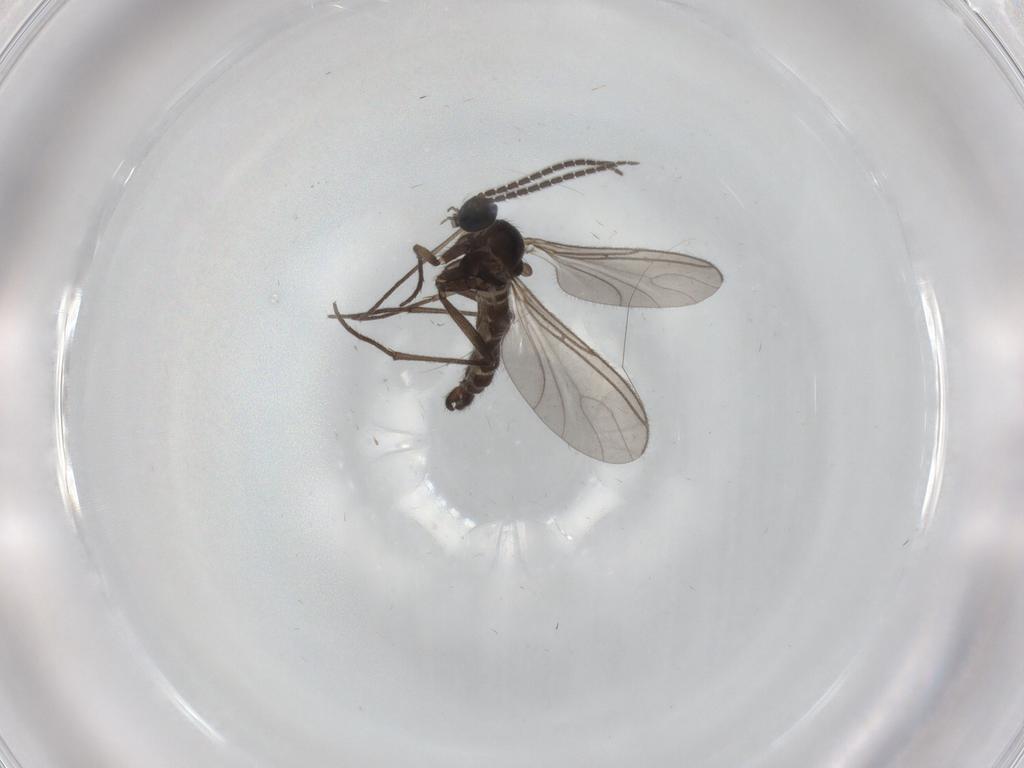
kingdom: Animalia
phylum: Arthropoda
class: Insecta
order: Diptera
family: Sciaridae
